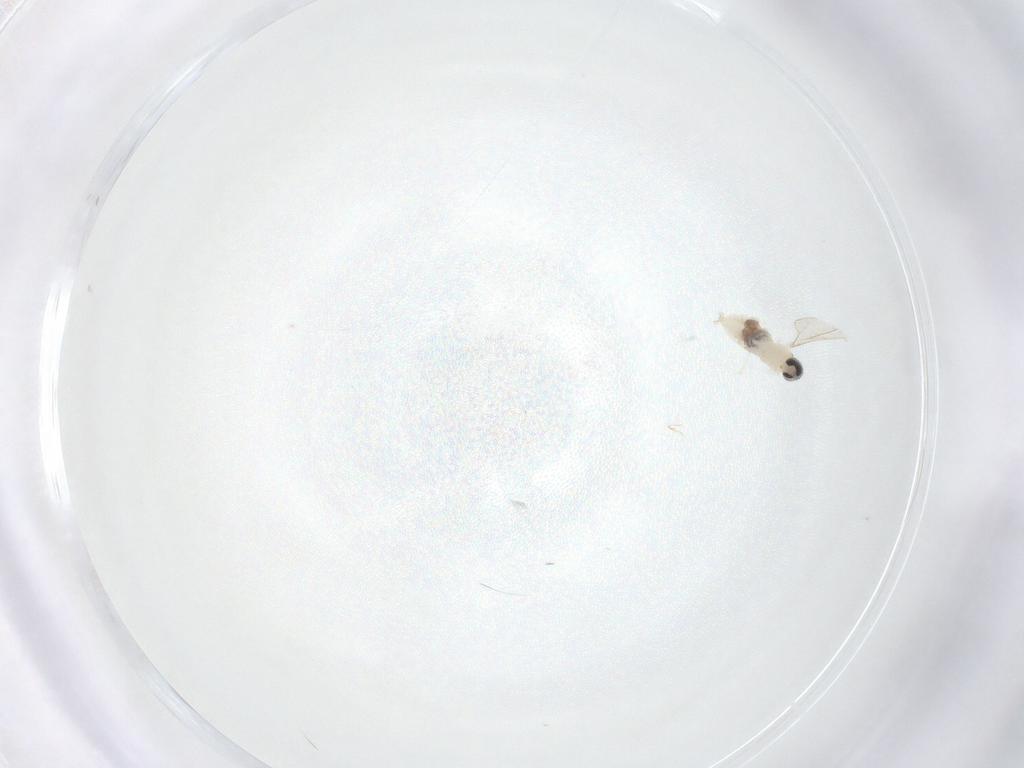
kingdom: Animalia
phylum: Arthropoda
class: Insecta
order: Diptera
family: Cecidomyiidae
